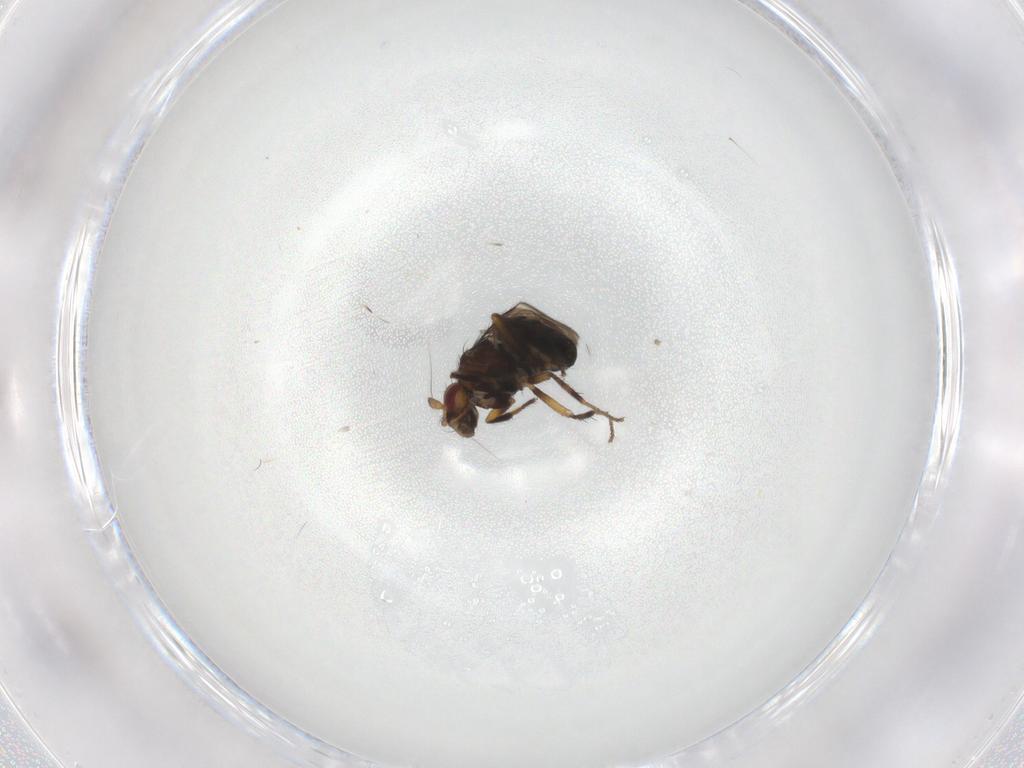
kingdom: Animalia
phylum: Arthropoda
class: Insecta
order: Diptera
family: Sphaeroceridae
